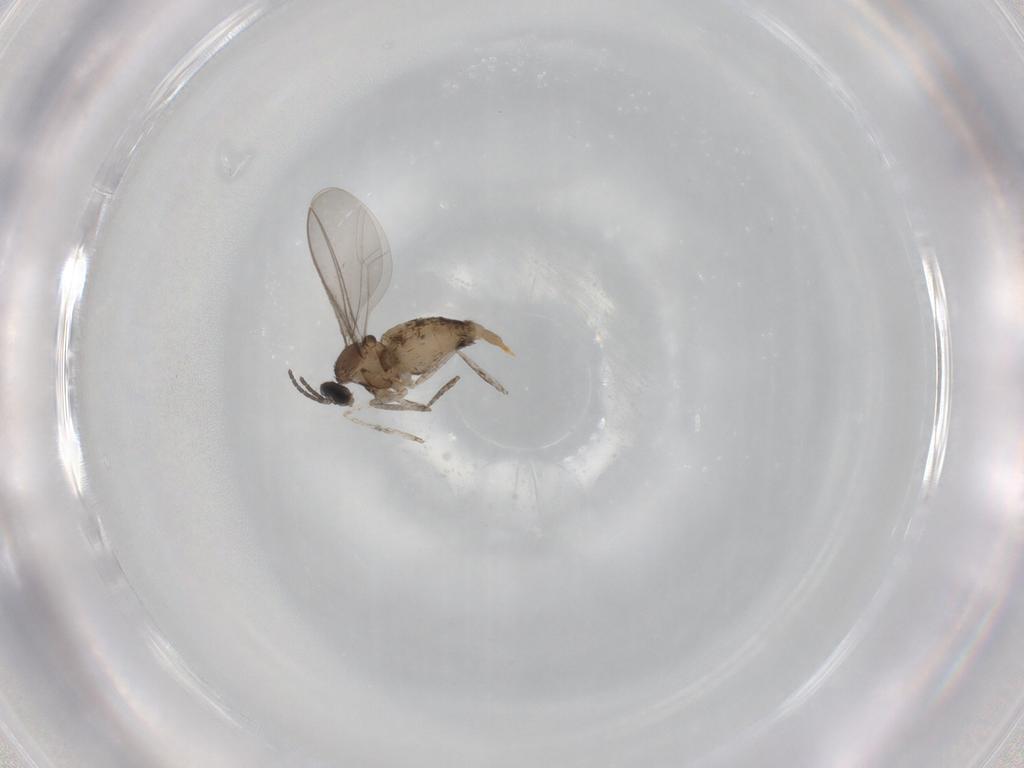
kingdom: Animalia
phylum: Arthropoda
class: Insecta
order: Diptera
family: Cecidomyiidae
